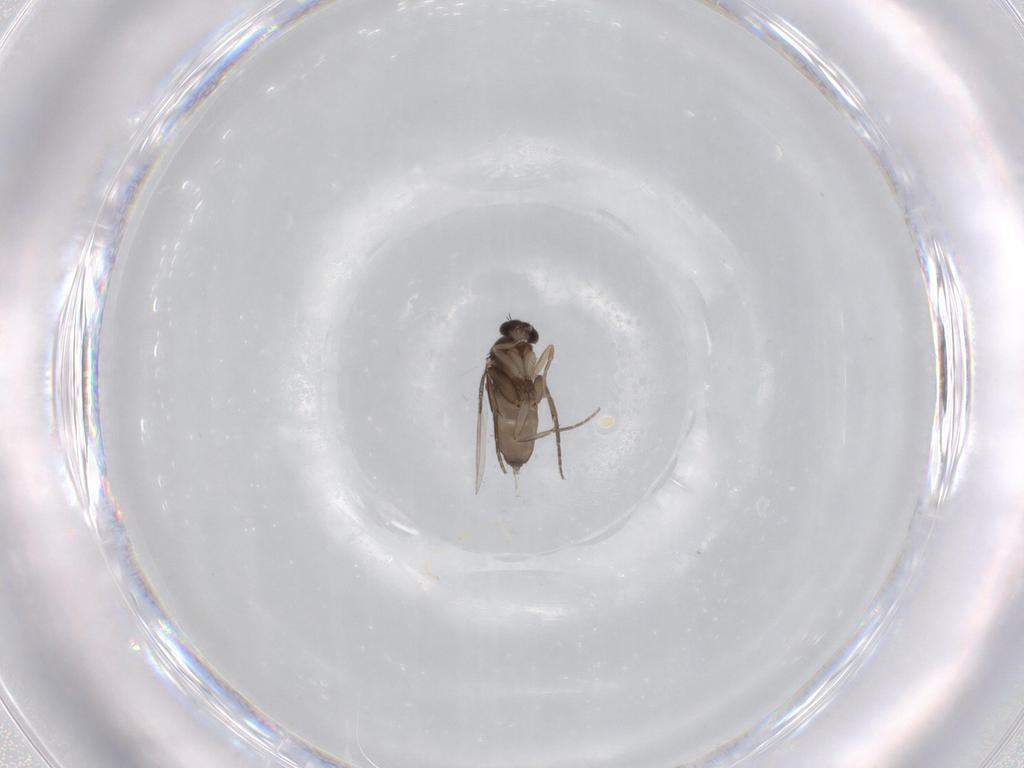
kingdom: Animalia
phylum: Arthropoda
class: Insecta
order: Diptera
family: Phoridae
